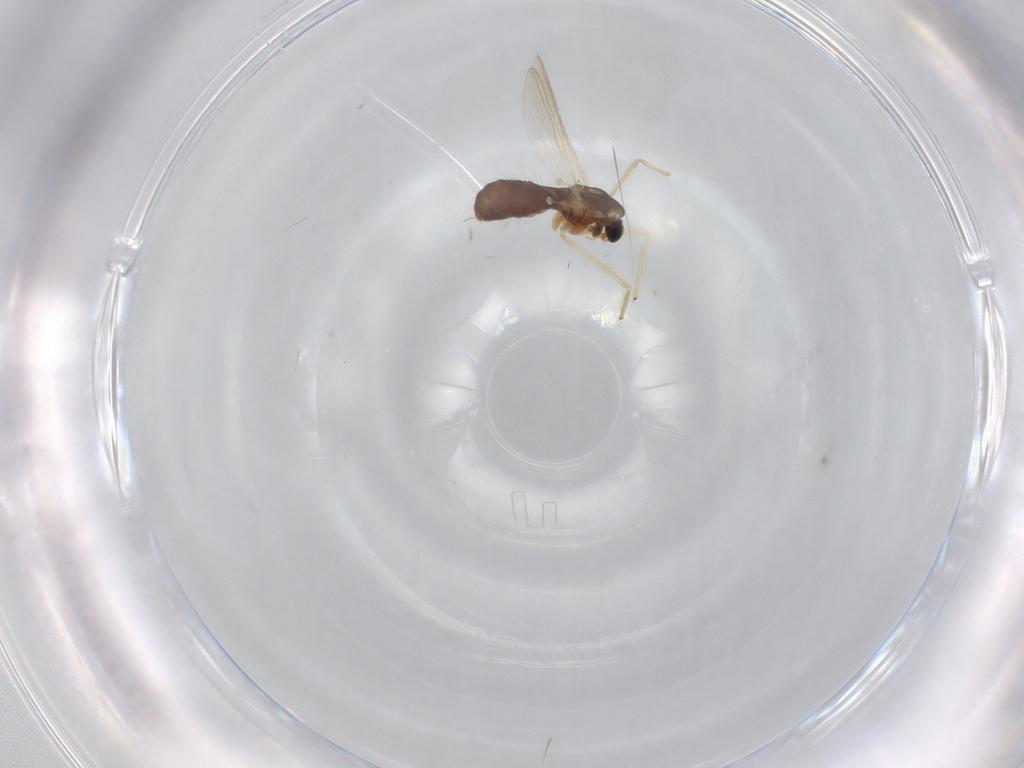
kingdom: Animalia
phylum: Arthropoda
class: Insecta
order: Diptera
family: Chironomidae
